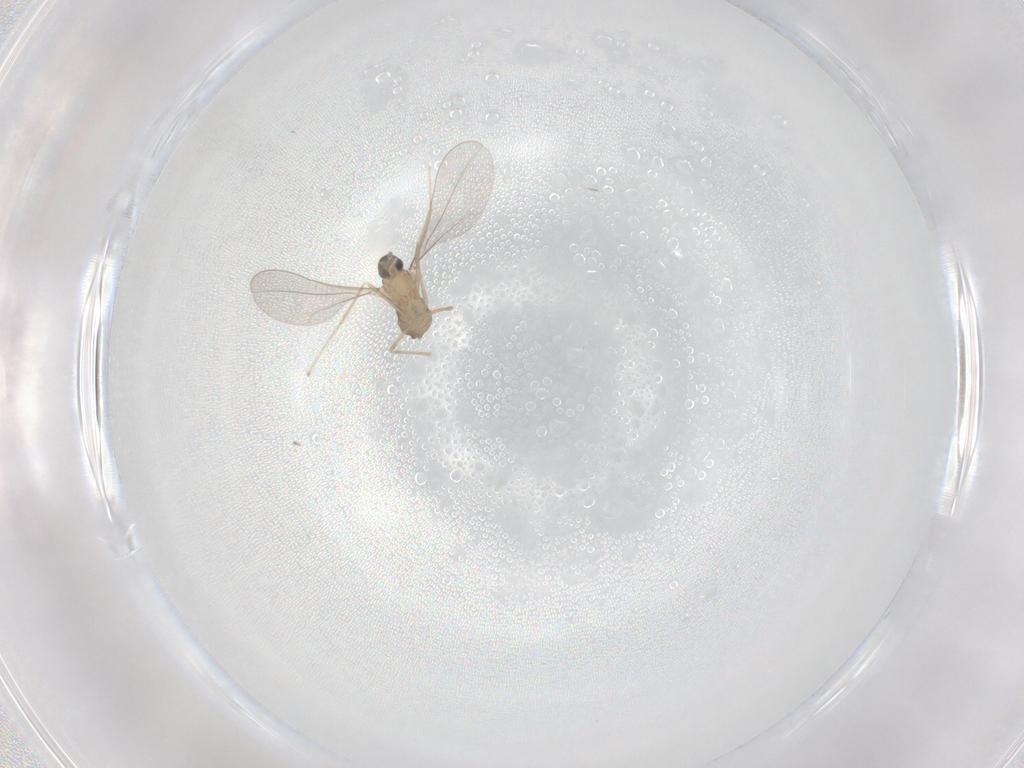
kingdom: Animalia
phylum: Arthropoda
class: Insecta
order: Diptera
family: Cecidomyiidae
